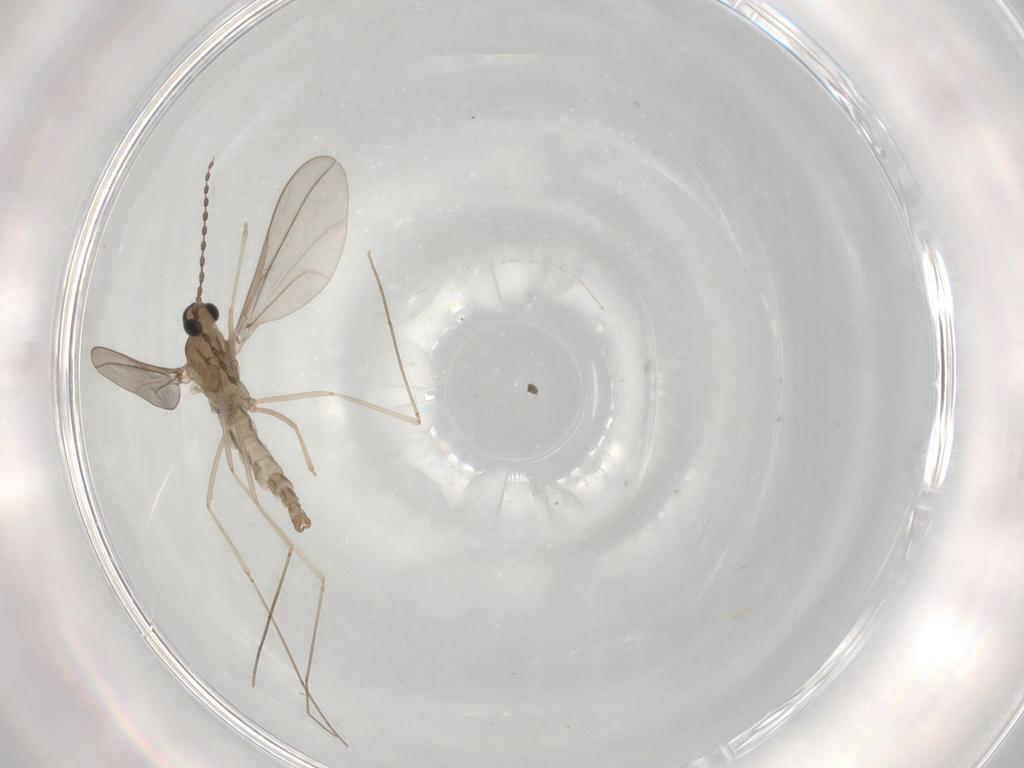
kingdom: Animalia
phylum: Arthropoda
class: Insecta
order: Diptera
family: Cecidomyiidae
